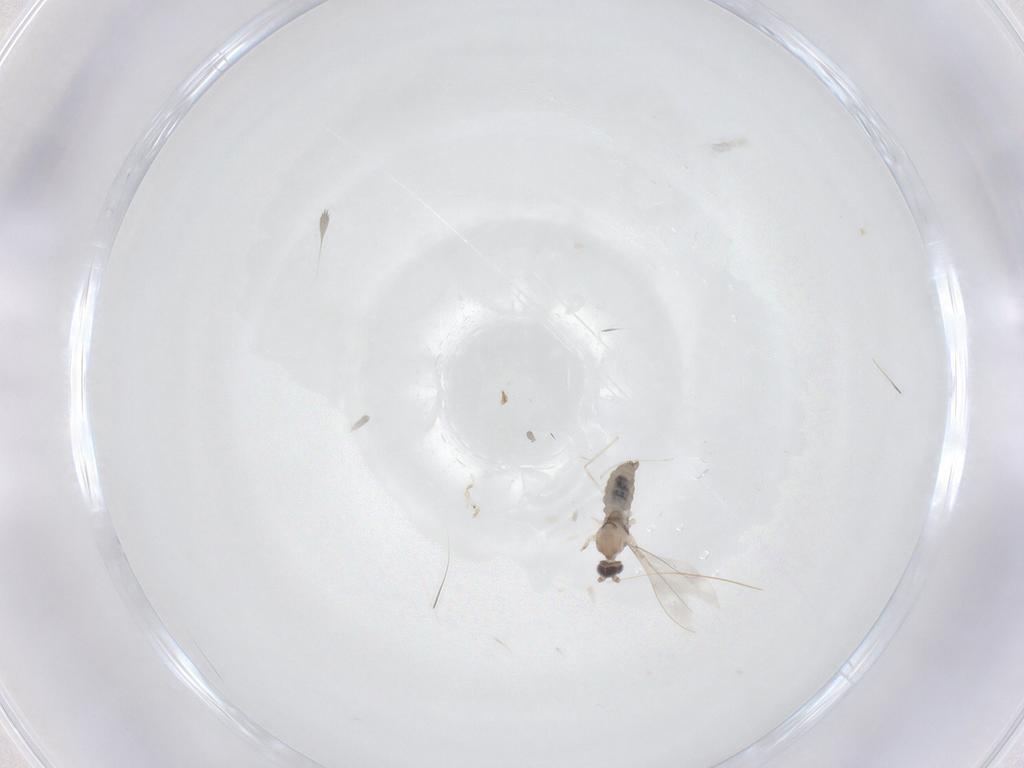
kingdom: Animalia
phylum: Arthropoda
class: Insecta
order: Diptera
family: Cecidomyiidae
